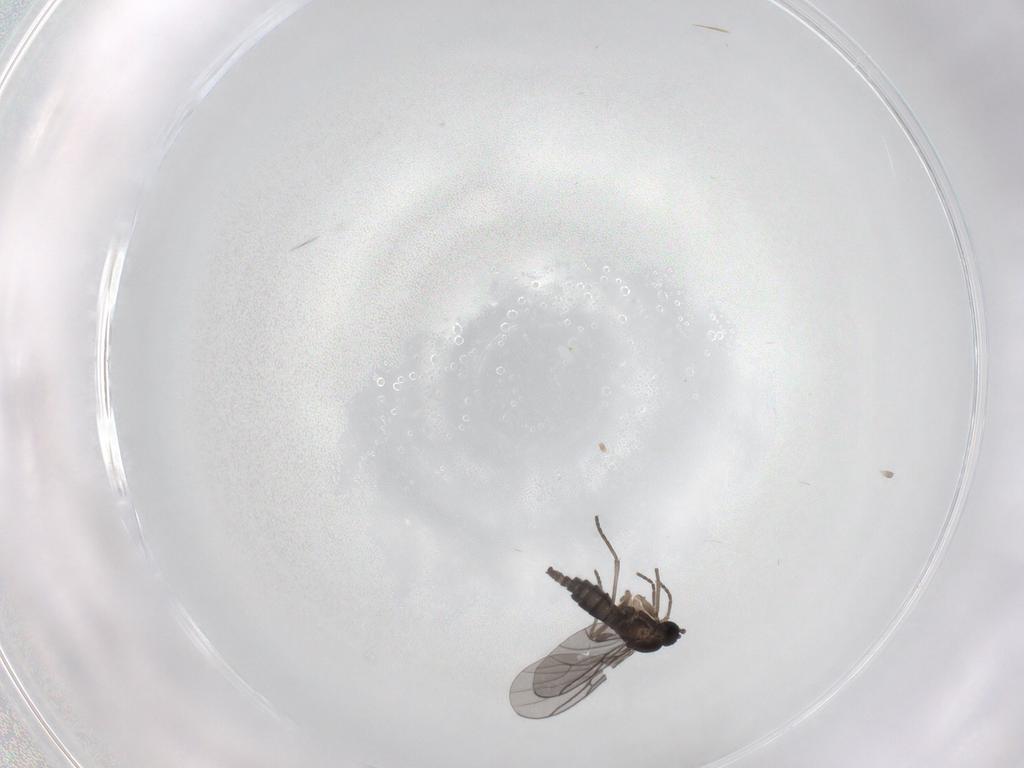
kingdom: Animalia
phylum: Arthropoda
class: Insecta
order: Diptera
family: Sciaridae
